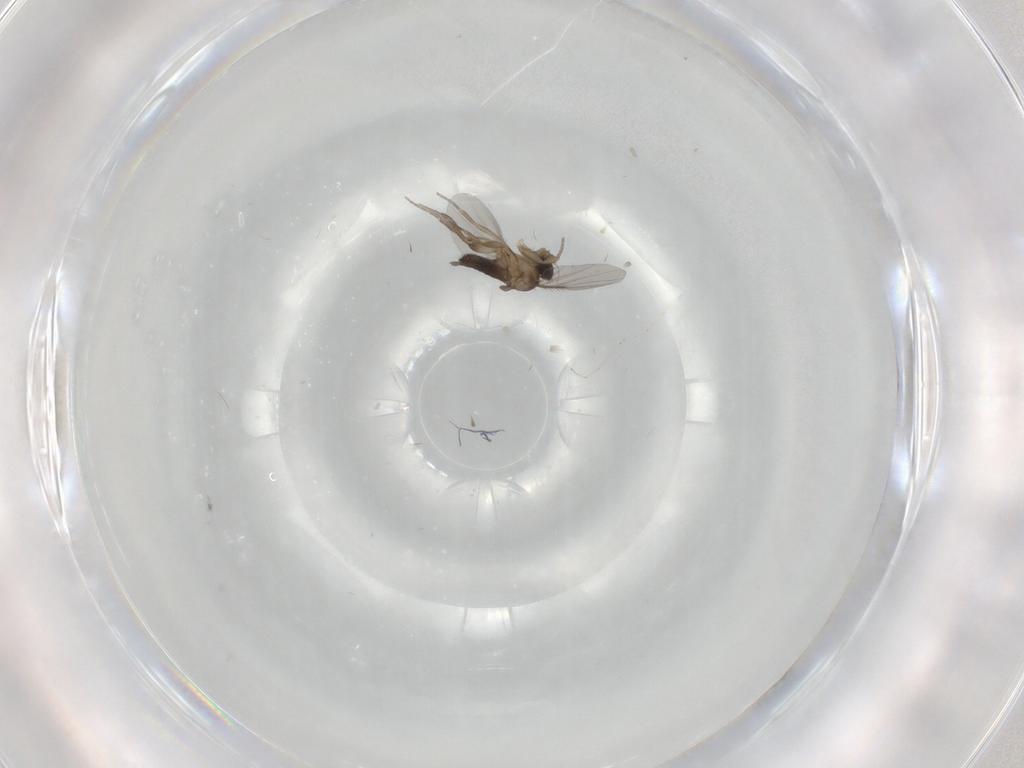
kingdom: Animalia
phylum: Arthropoda
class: Insecta
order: Diptera
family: Phoridae
